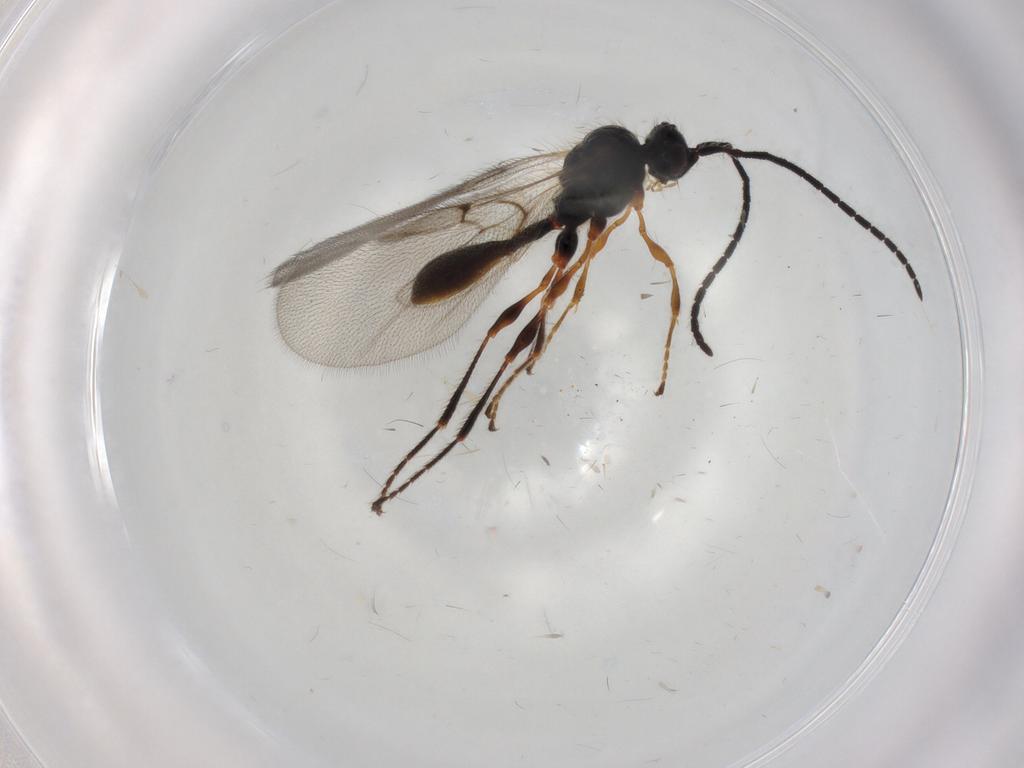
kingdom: Animalia
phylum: Arthropoda
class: Insecta
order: Hymenoptera
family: Diapriidae
